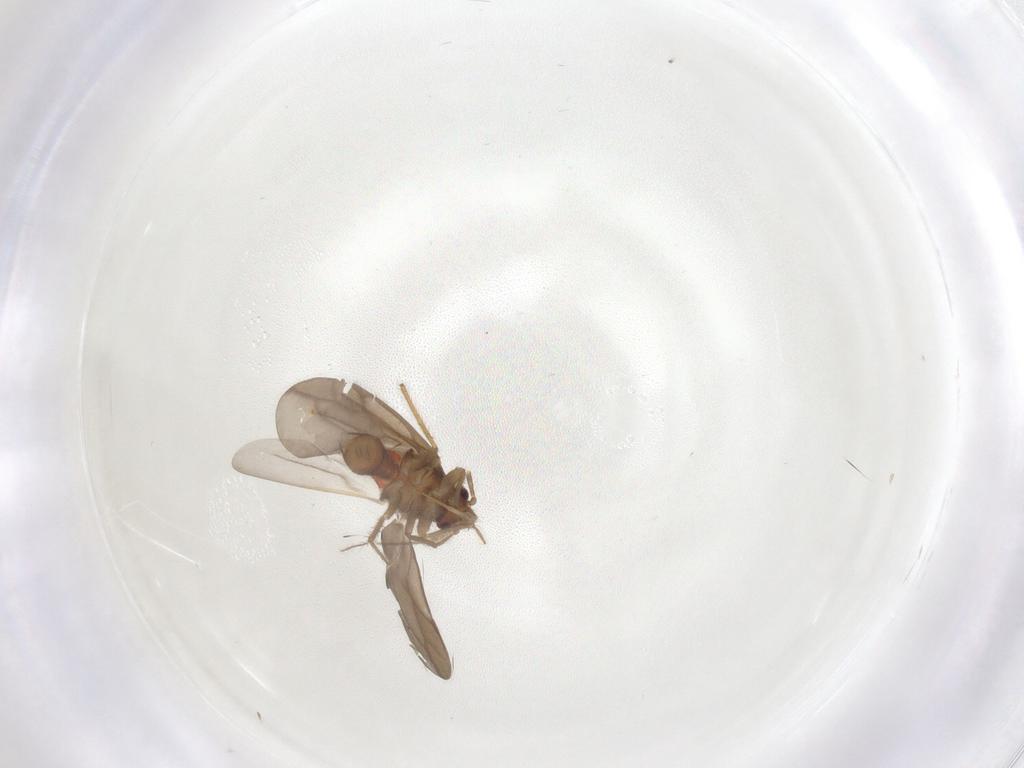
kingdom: Animalia
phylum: Arthropoda
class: Insecta
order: Hemiptera
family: Ceratocombidae
